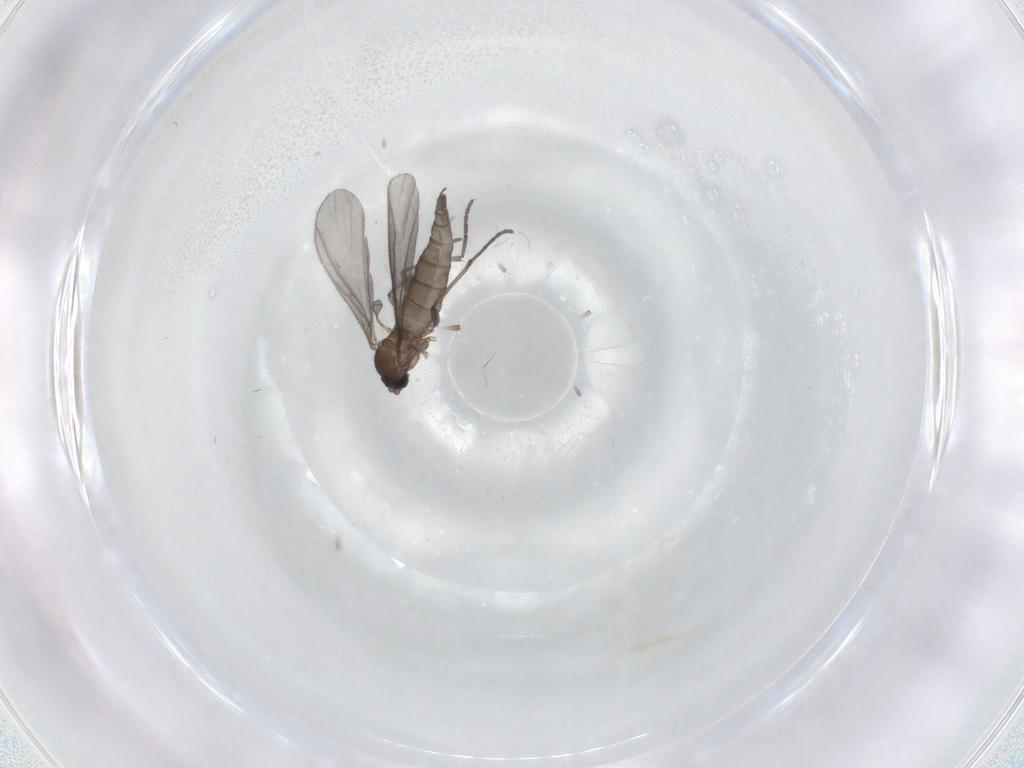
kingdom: Animalia
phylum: Arthropoda
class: Insecta
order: Diptera
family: Sciaridae
